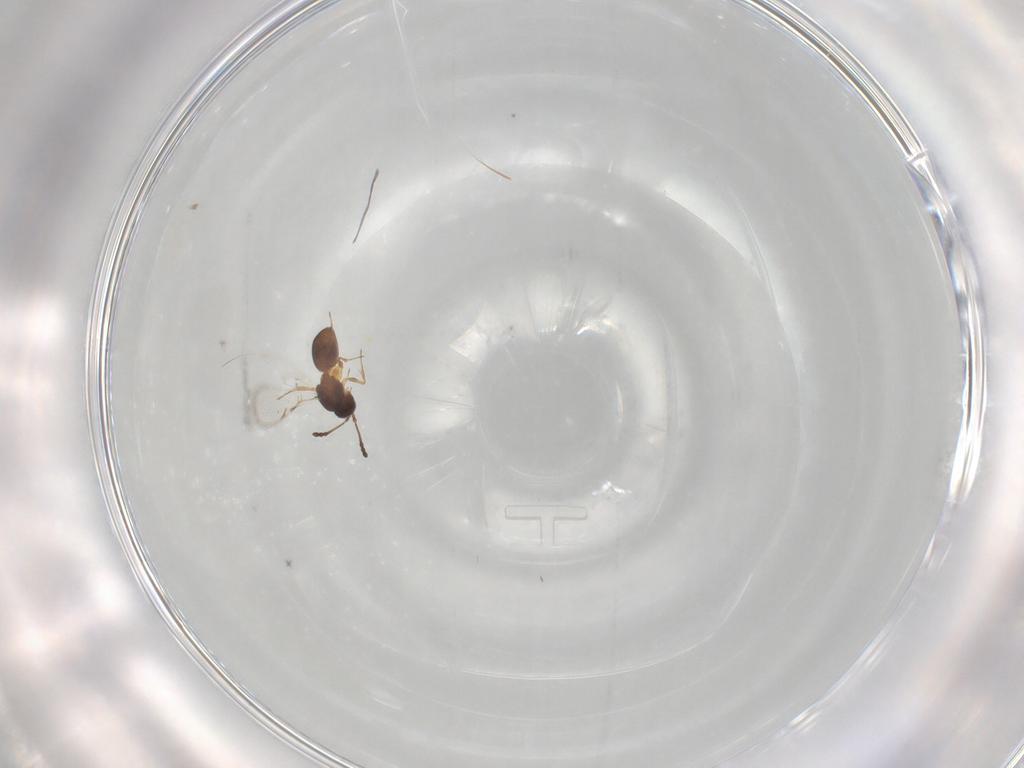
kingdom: Animalia
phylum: Arthropoda
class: Insecta
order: Hymenoptera
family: Figitidae
